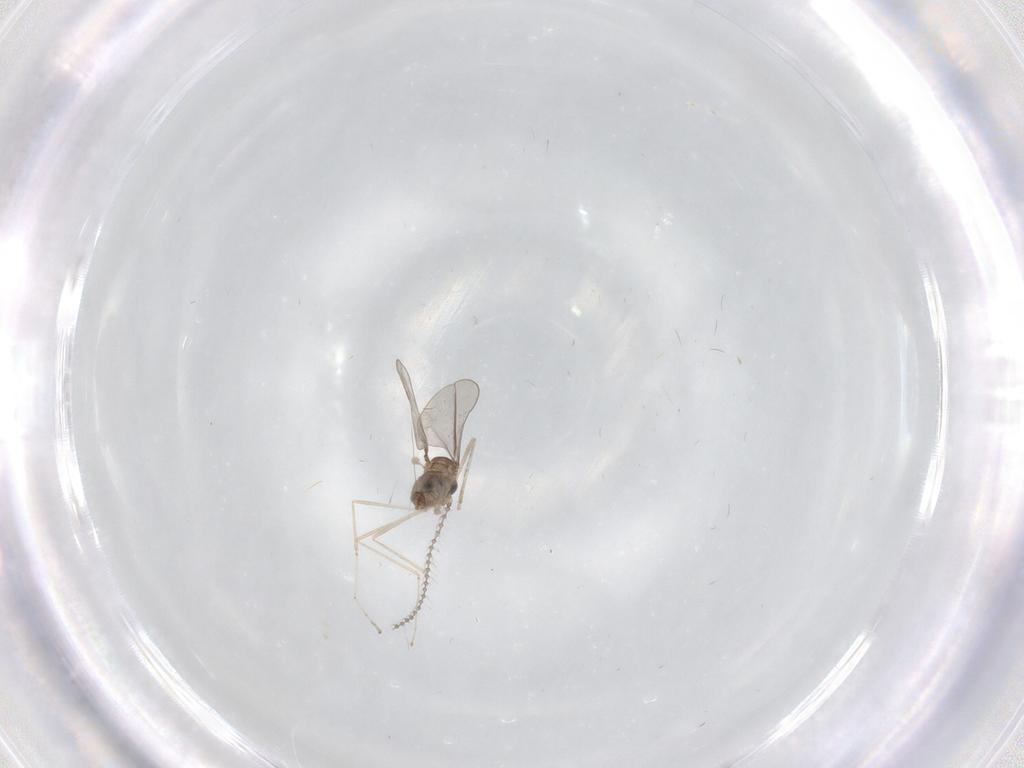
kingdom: Animalia
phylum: Arthropoda
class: Insecta
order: Diptera
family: Cecidomyiidae
